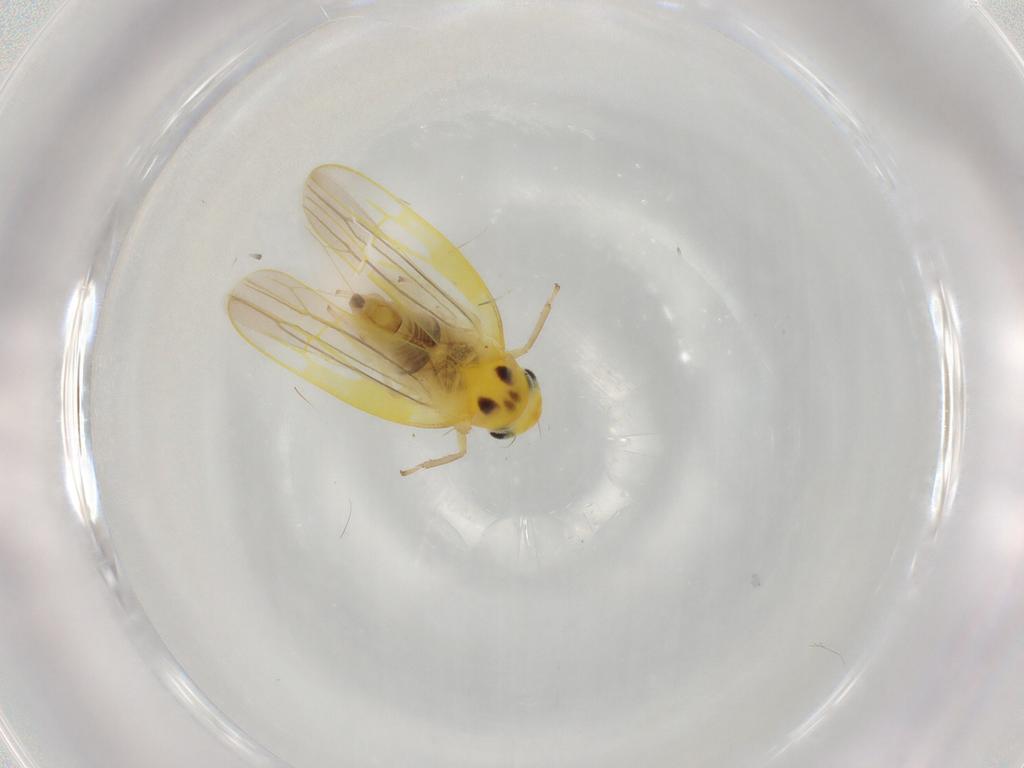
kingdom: Animalia
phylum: Arthropoda
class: Insecta
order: Hemiptera
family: Cicadellidae
